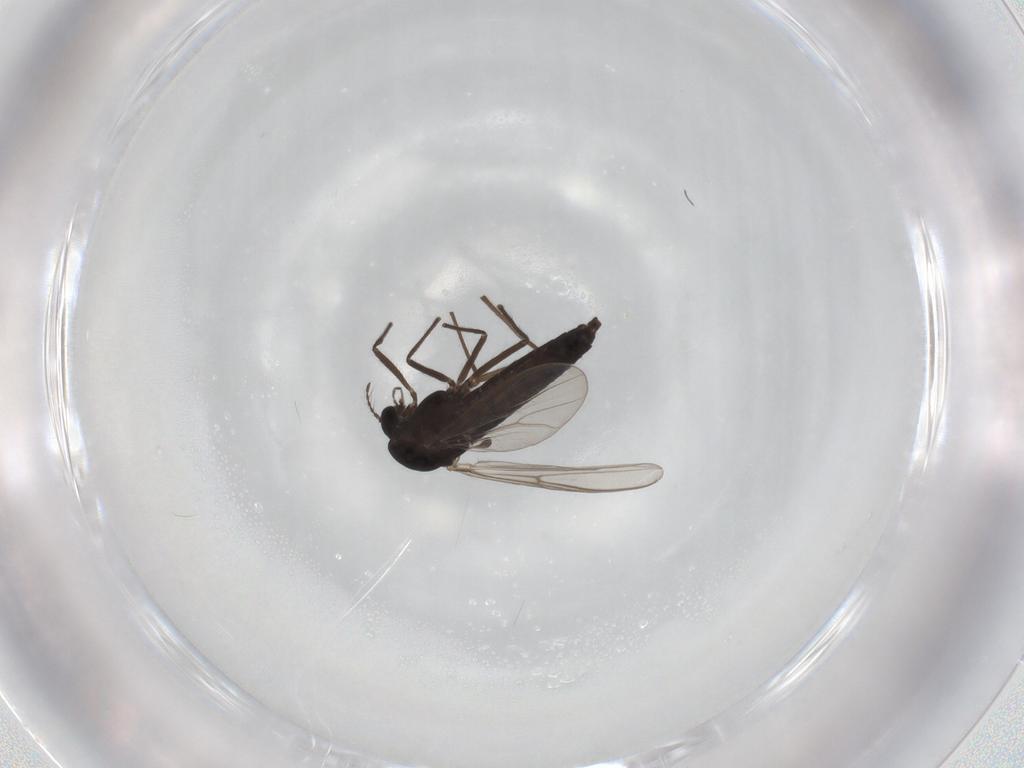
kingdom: Animalia
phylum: Arthropoda
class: Insecta
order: Diptera
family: Chironomidae
